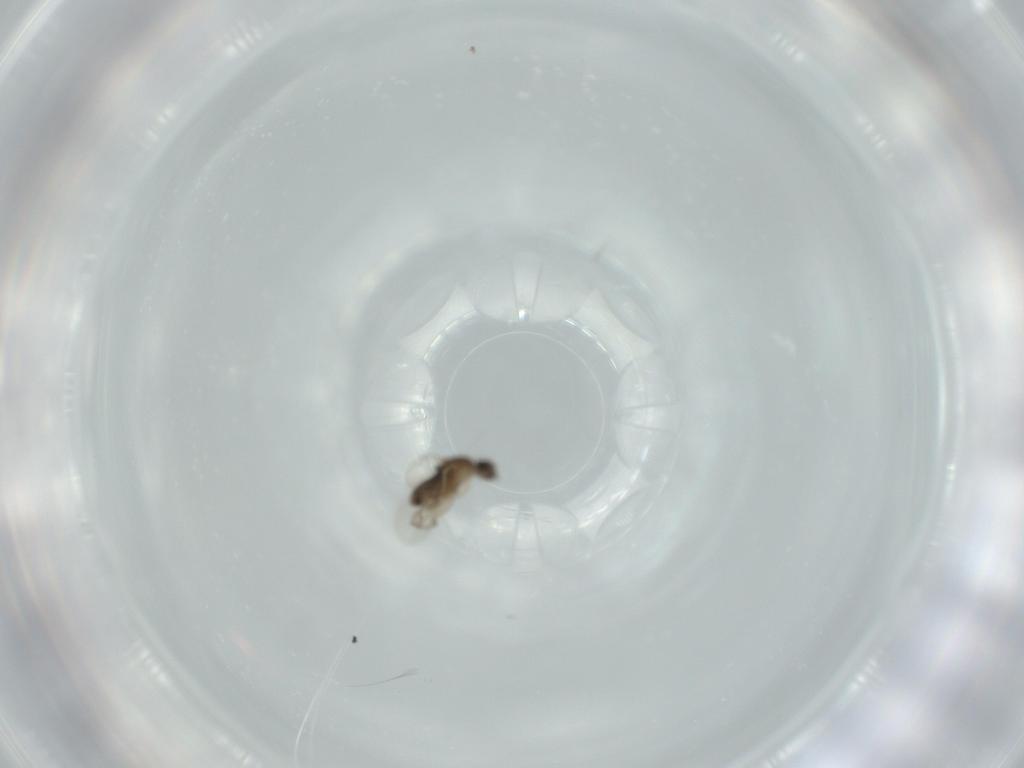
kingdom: Animalia
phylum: Arthropoda
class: Insecta
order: Diptera
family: Phoridae
